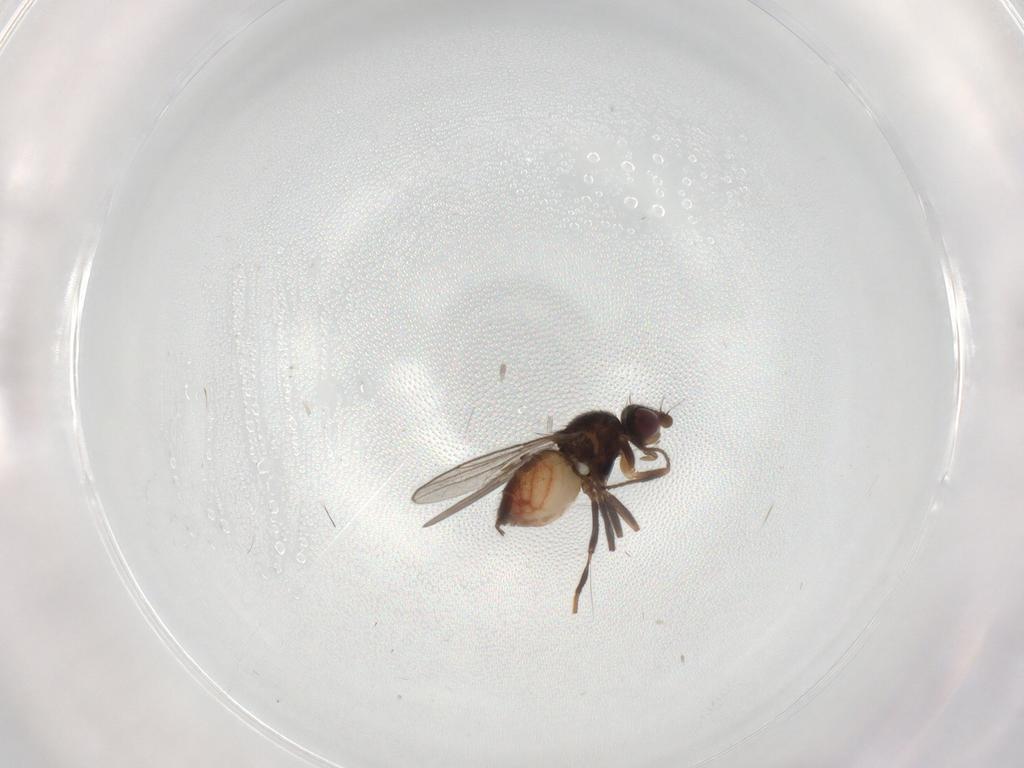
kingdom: Animalia
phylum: Arthropoda
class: Insecta
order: Diptera
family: Chloropidae
